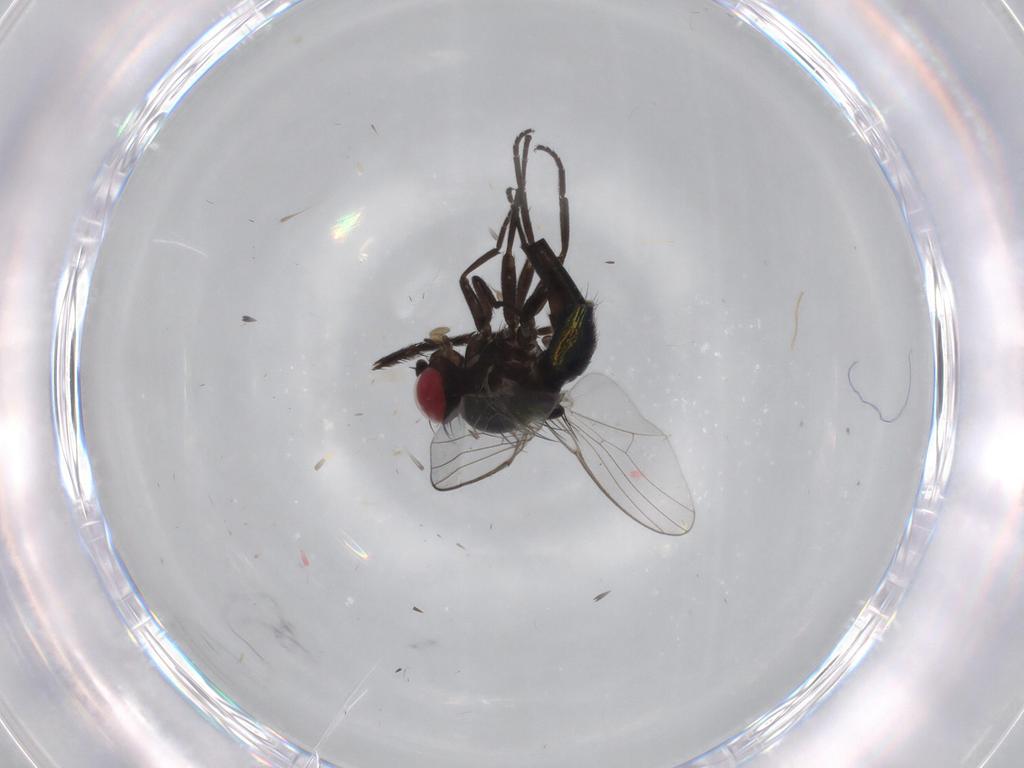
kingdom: Animalia
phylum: Arthropoda
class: Insecta
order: Diptera
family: Agromyzidae
